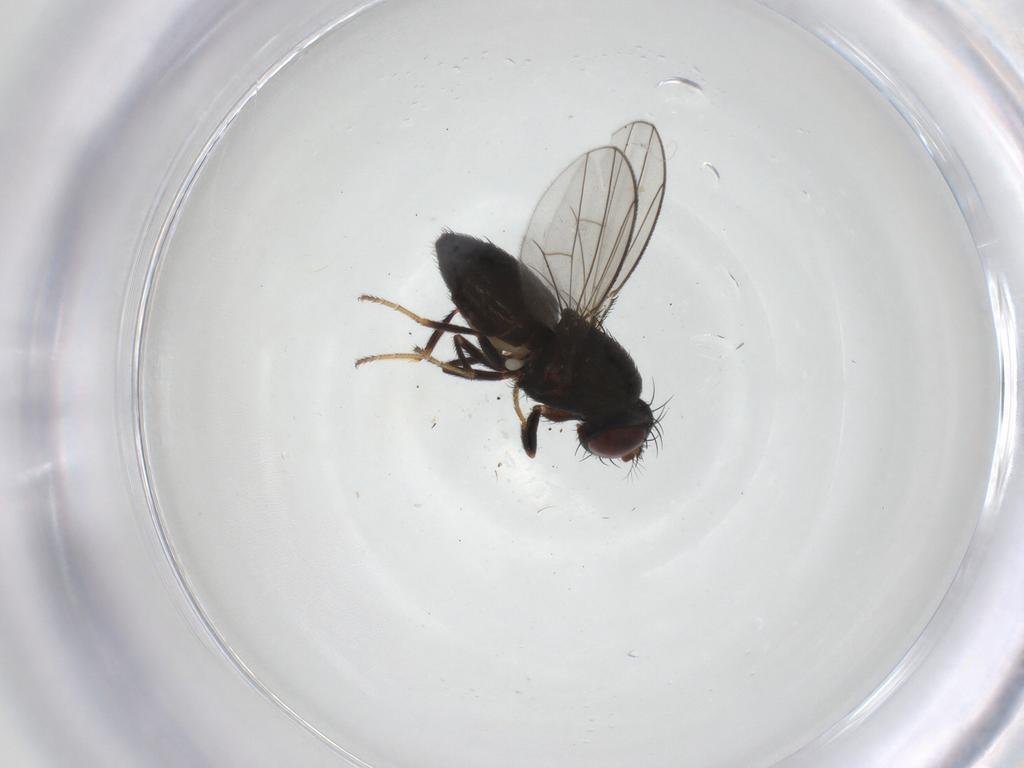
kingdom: Animalia
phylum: Arthropoda
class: Insecta
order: Diptera
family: Ephydridae
